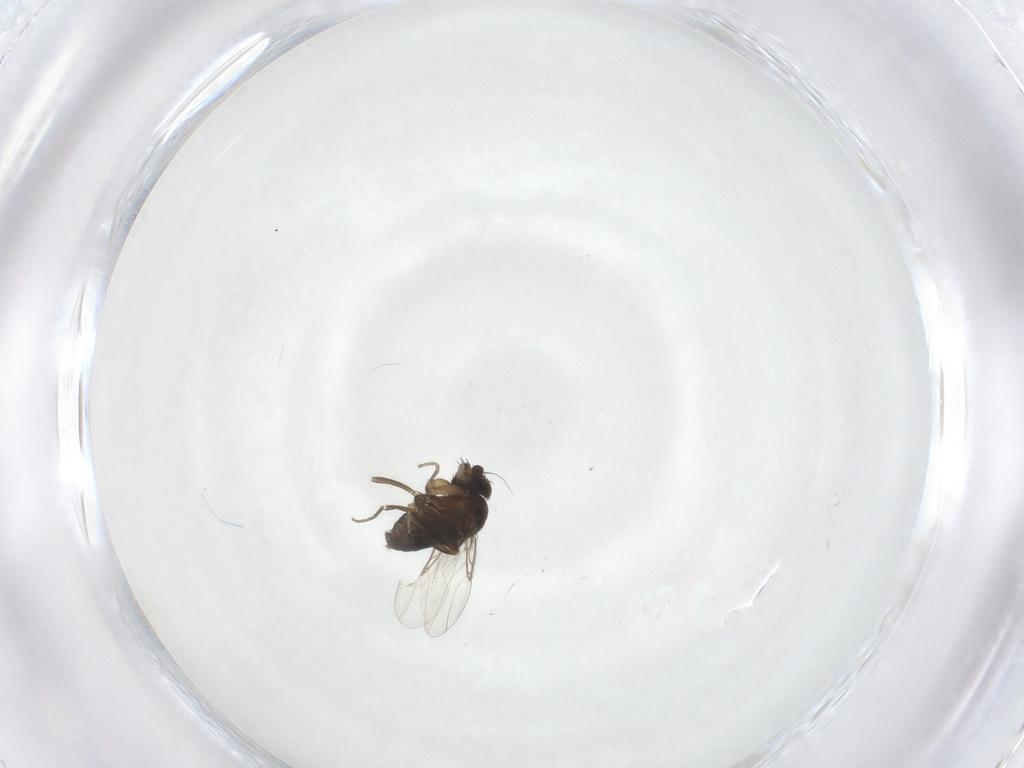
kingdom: Animalia
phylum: Arthropoda
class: Insecta
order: Diptera
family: Phoridae
